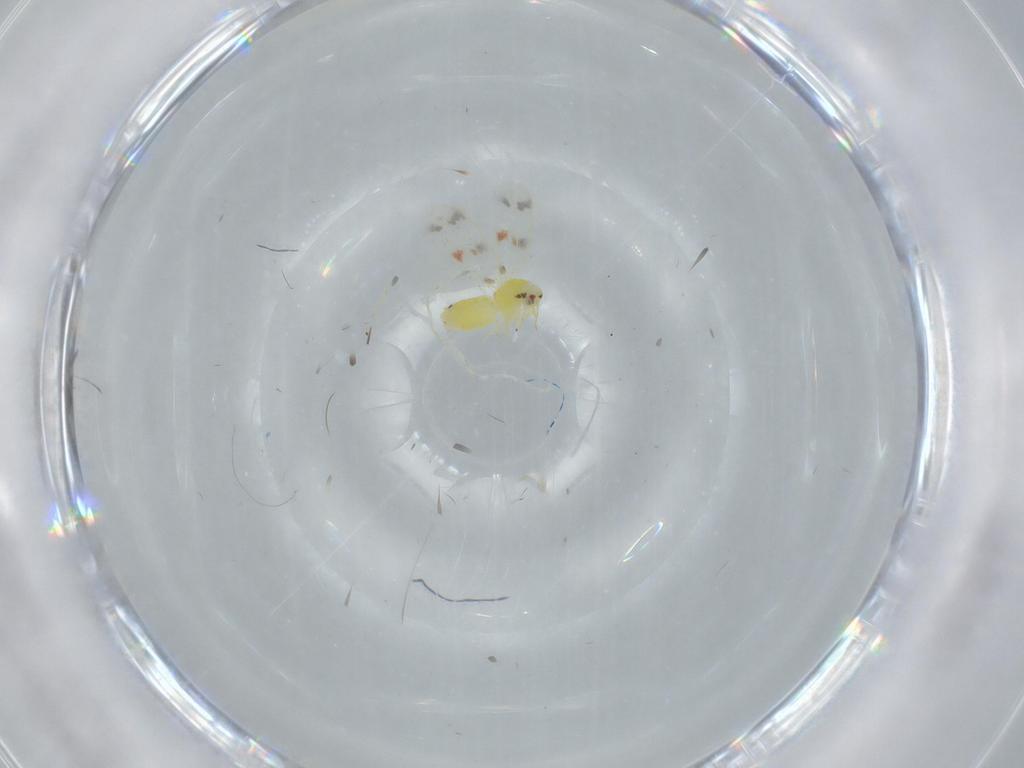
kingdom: Animalia
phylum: Arthropoda
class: Insecta
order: Hemiptera
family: Aleyrodidae
